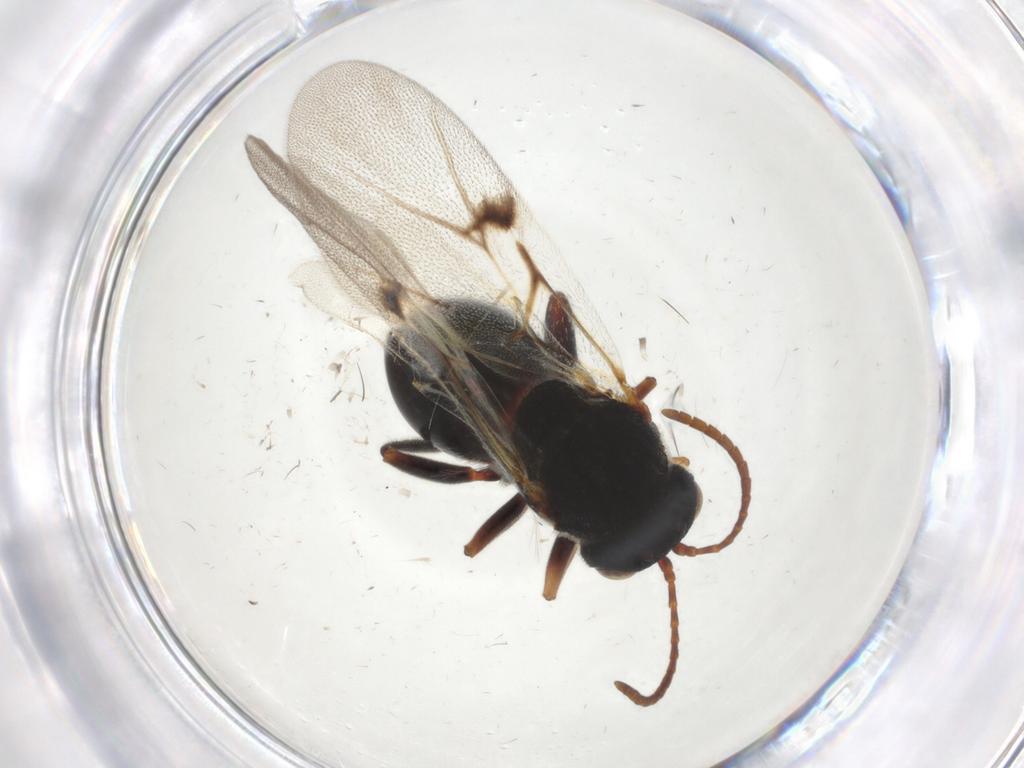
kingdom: Animalia
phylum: Arthropoda
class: Insecta
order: Hymenoptera
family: Cynipidae
